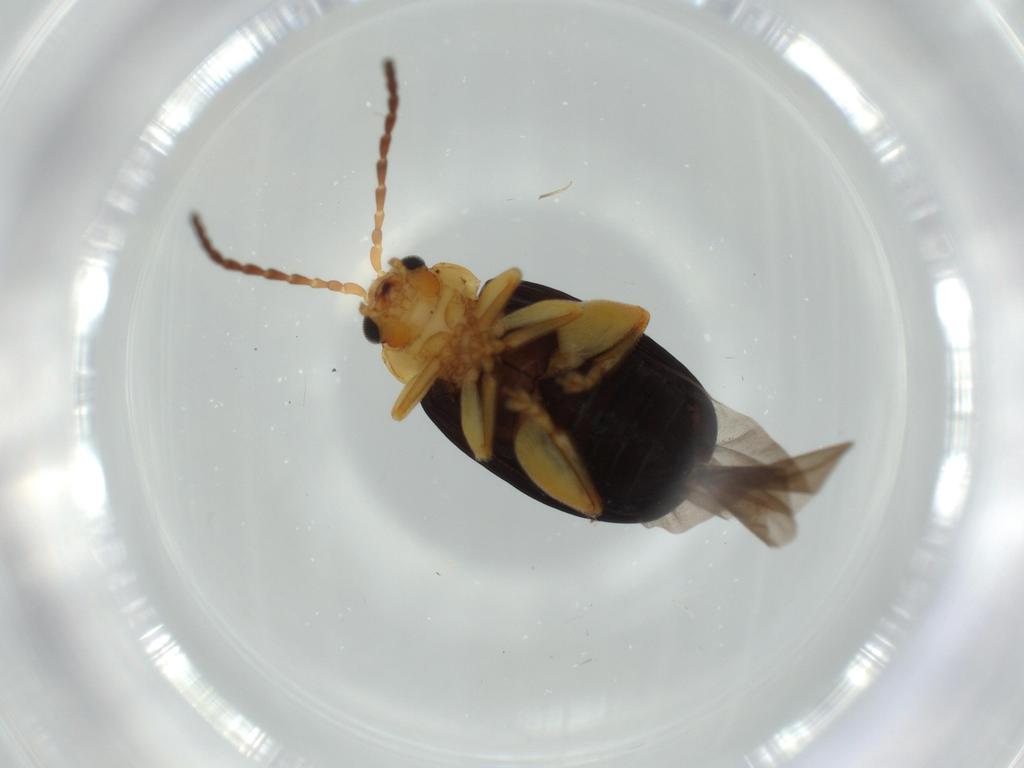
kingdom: Animalia
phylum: Arthropoda
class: Insecta
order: Coleoptera
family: Chrysomelidae
